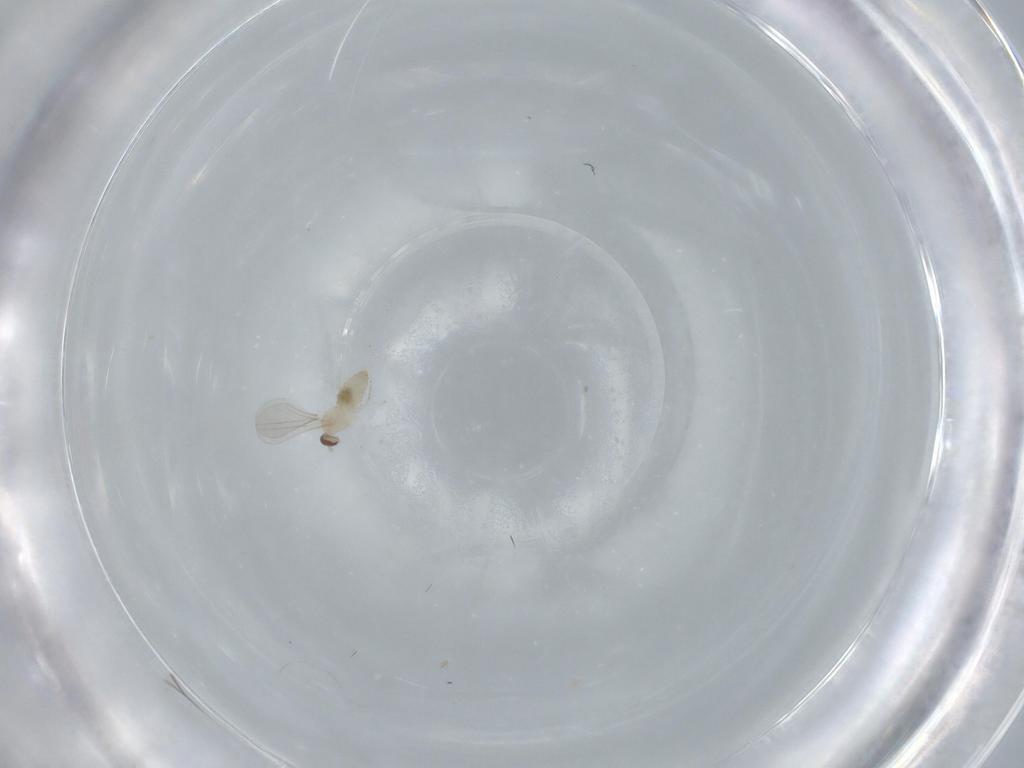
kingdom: Animalia
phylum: Arthropoda
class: Insecta
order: Diptera
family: Cecidomyiidae
